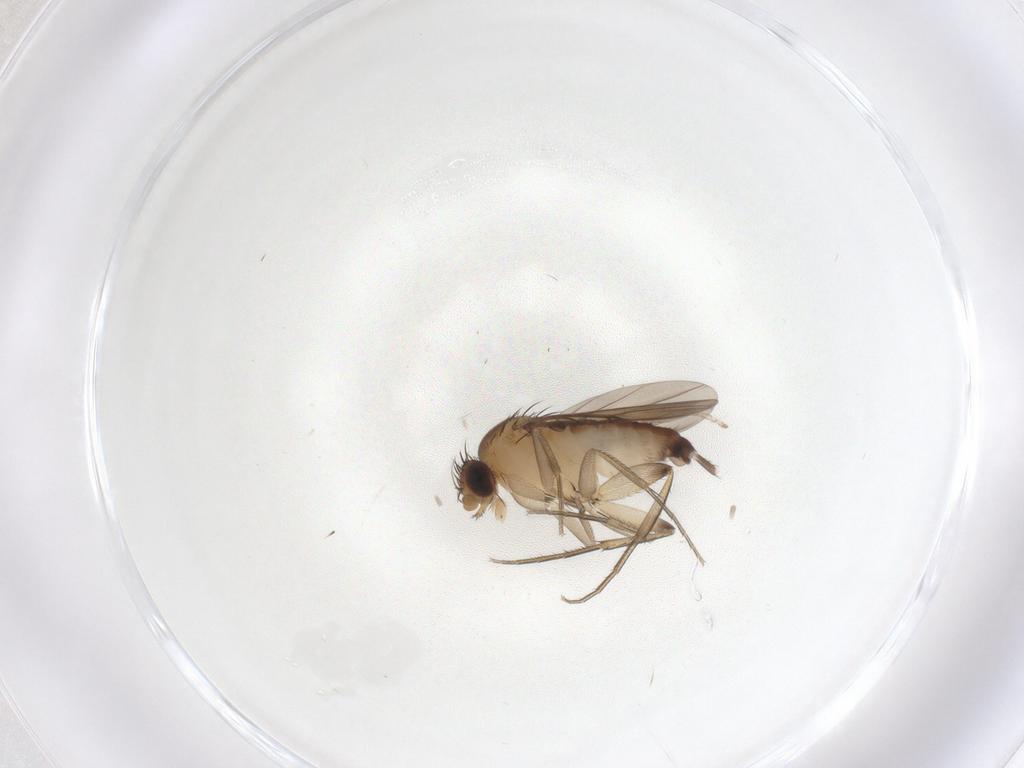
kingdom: Animalia
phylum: Arthropoda
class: Insecta
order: Diptera
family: Phoridae
